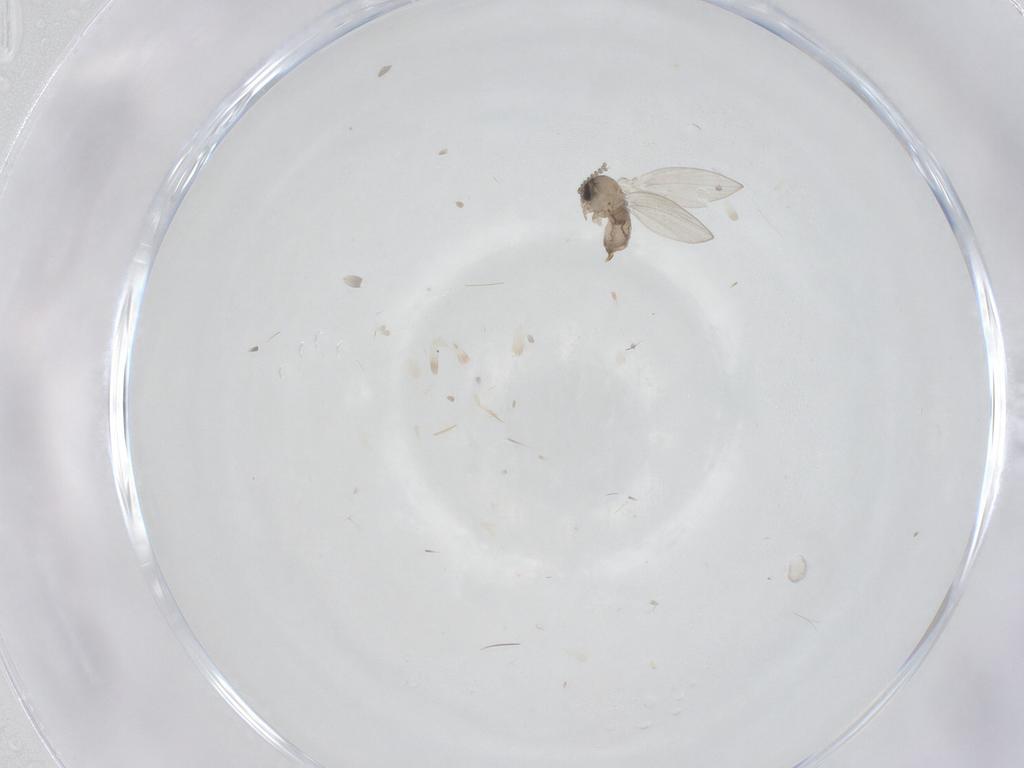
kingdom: Animalia
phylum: Arthropoda
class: Insecta
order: Diptera
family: Psychodidae
